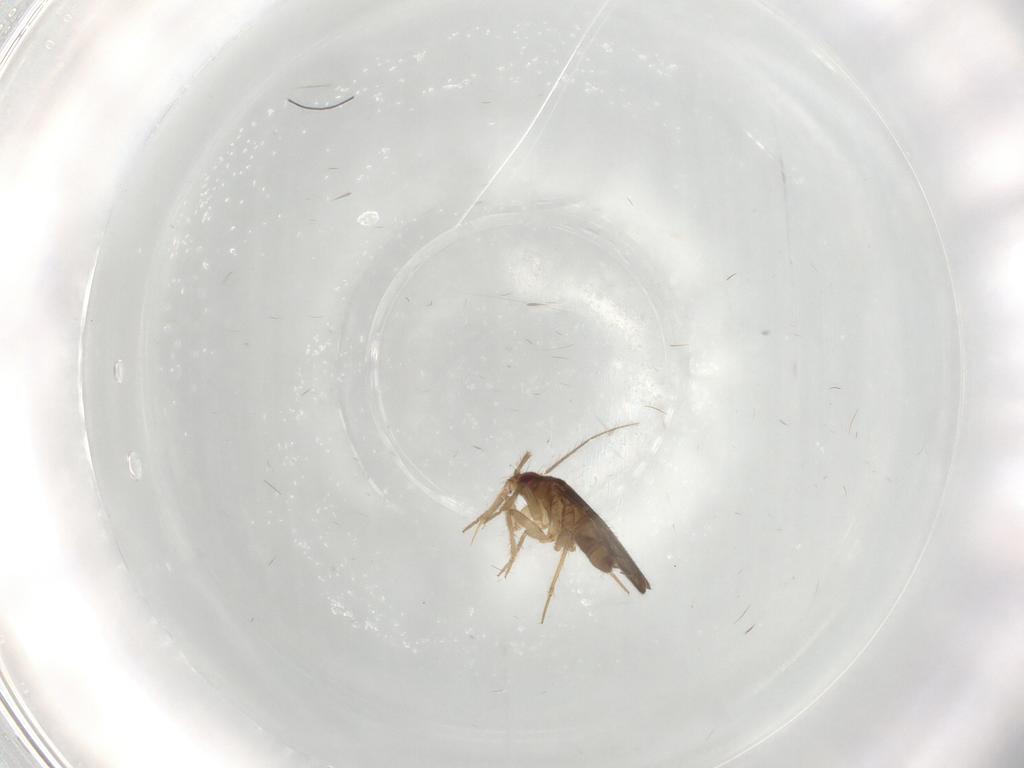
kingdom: Animalia
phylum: Arthropoda
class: Insecta
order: Hemiptera
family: Ceratocombidae
